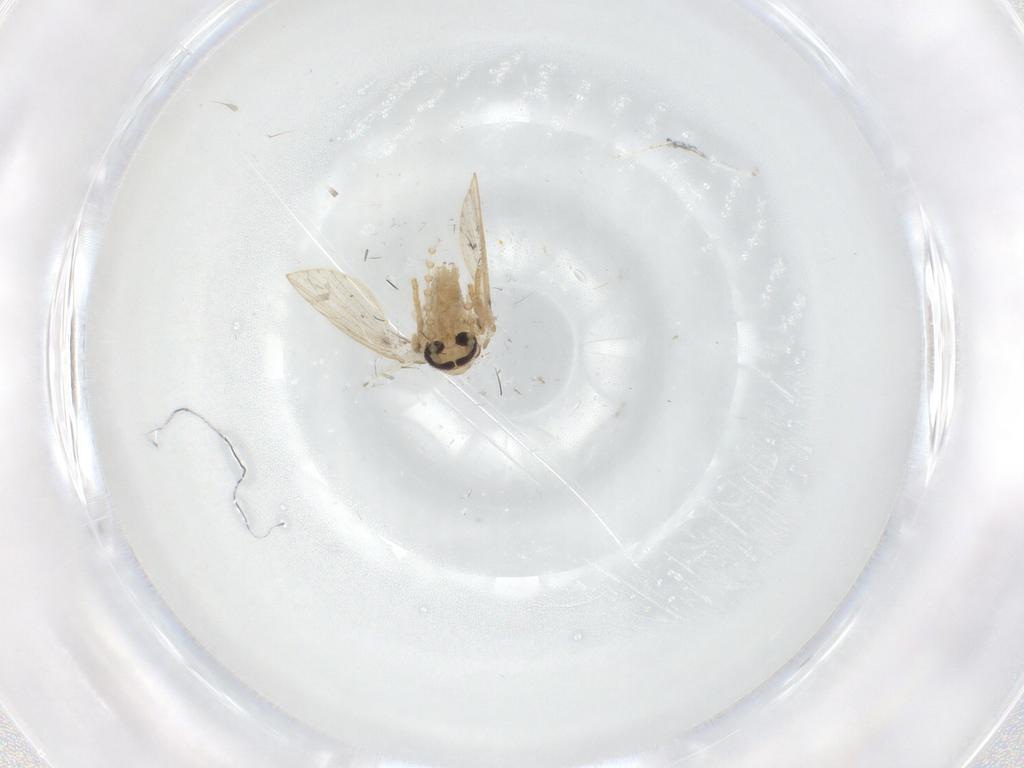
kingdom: Animalia
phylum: Arthropoda
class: Insecta
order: Diptera
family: Psychodidae
